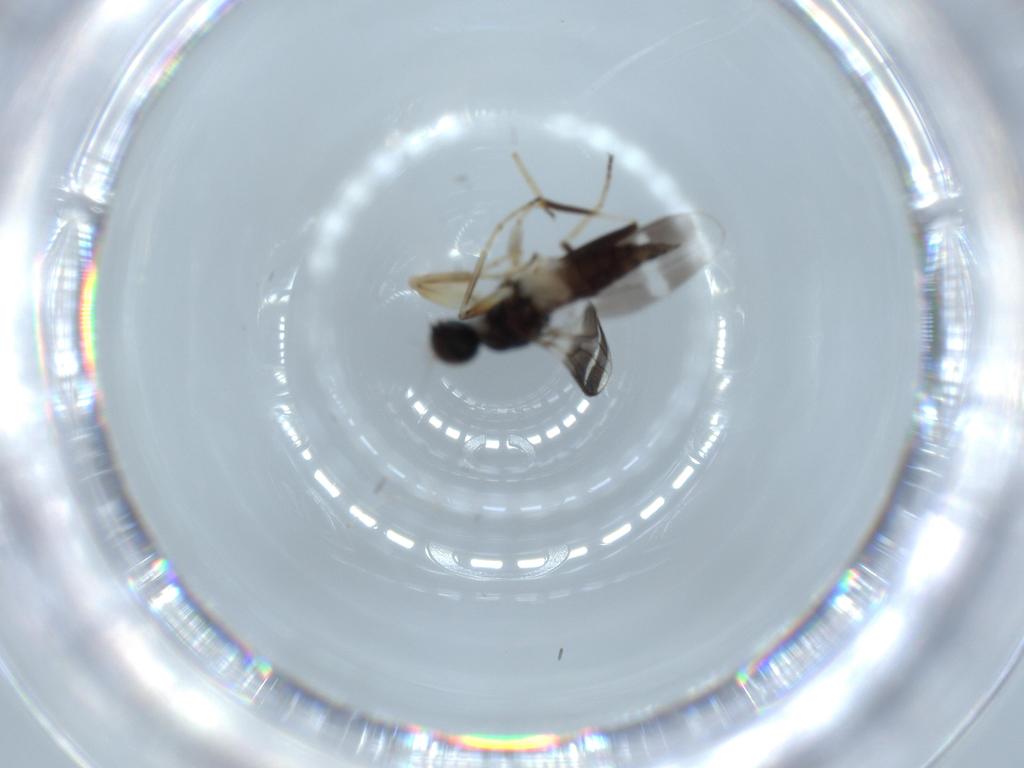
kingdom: Animalia
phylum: Arthropoda
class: Insecta
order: Diptera
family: Hybotidae
